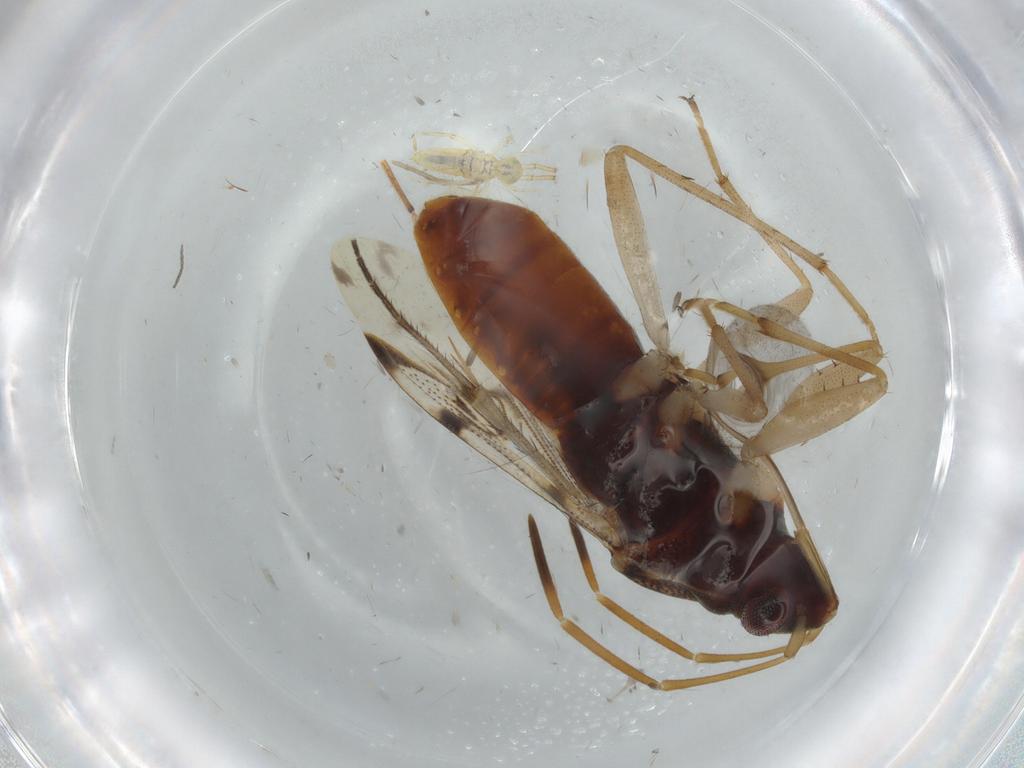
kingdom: Animalia
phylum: Arthropoda
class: Insecta
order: Hemiptera
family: Rhyparochromidae
